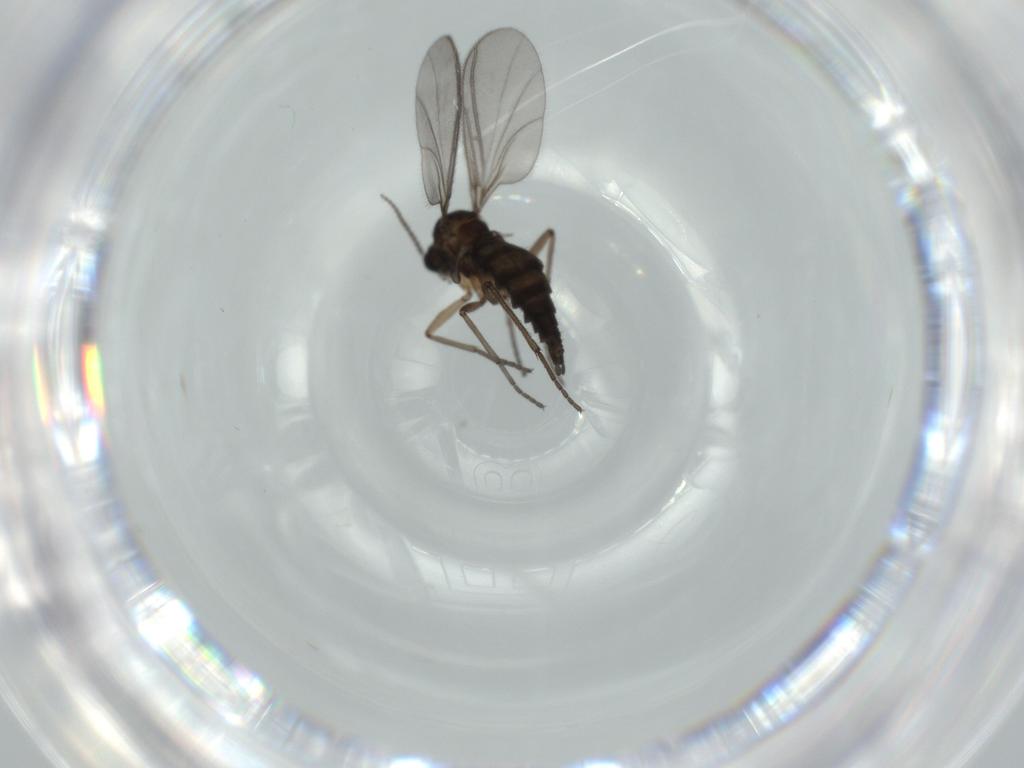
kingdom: Animalia
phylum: Arthropoda
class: Insecta
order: Diptera
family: Sciaridae
